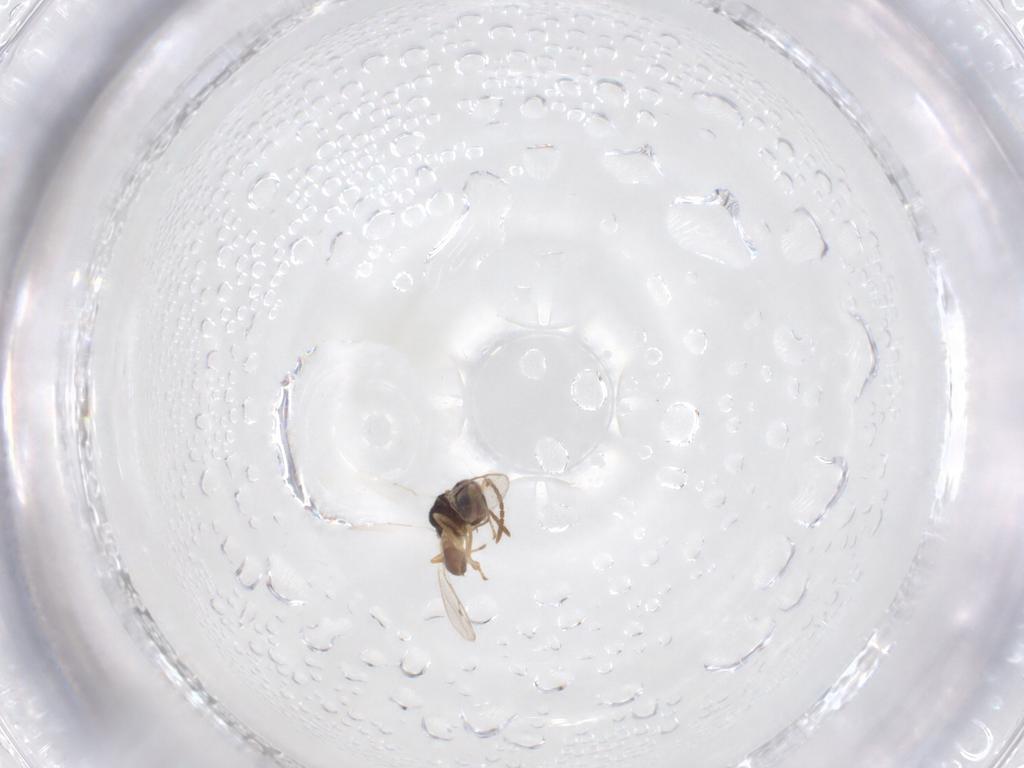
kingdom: Animalia
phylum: Arthropoda
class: Insecta
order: Hymenoptera
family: Pteromalidae
